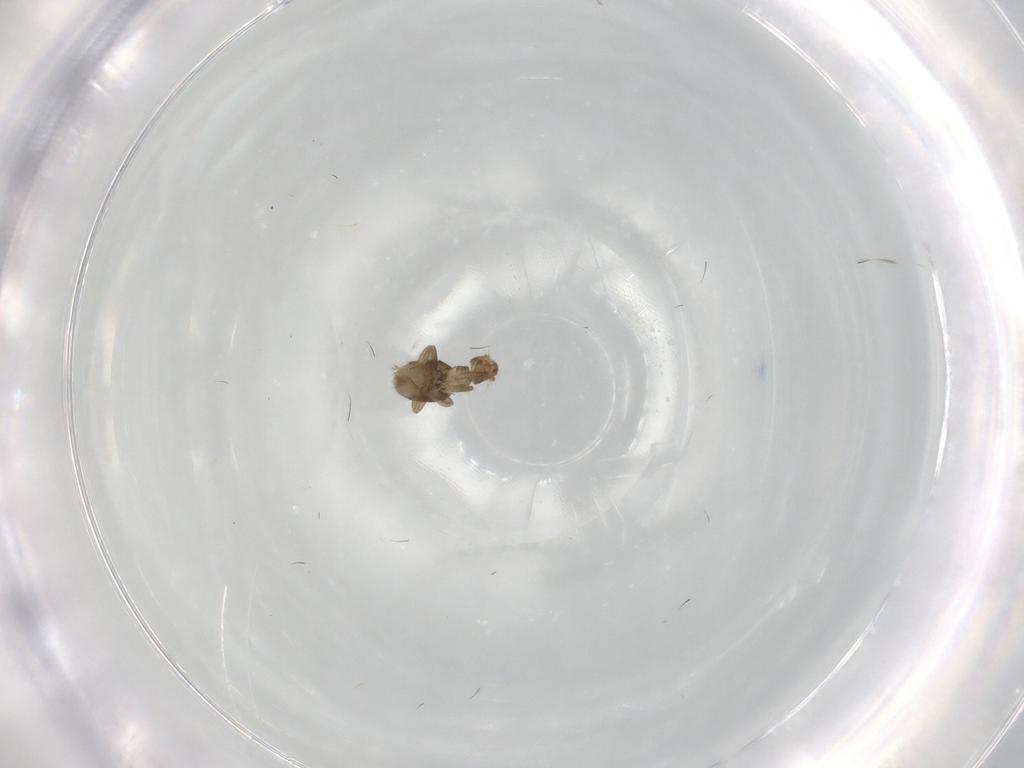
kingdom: Animalia
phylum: Arthropoda
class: Insecta
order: Diptera
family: Phoridae
